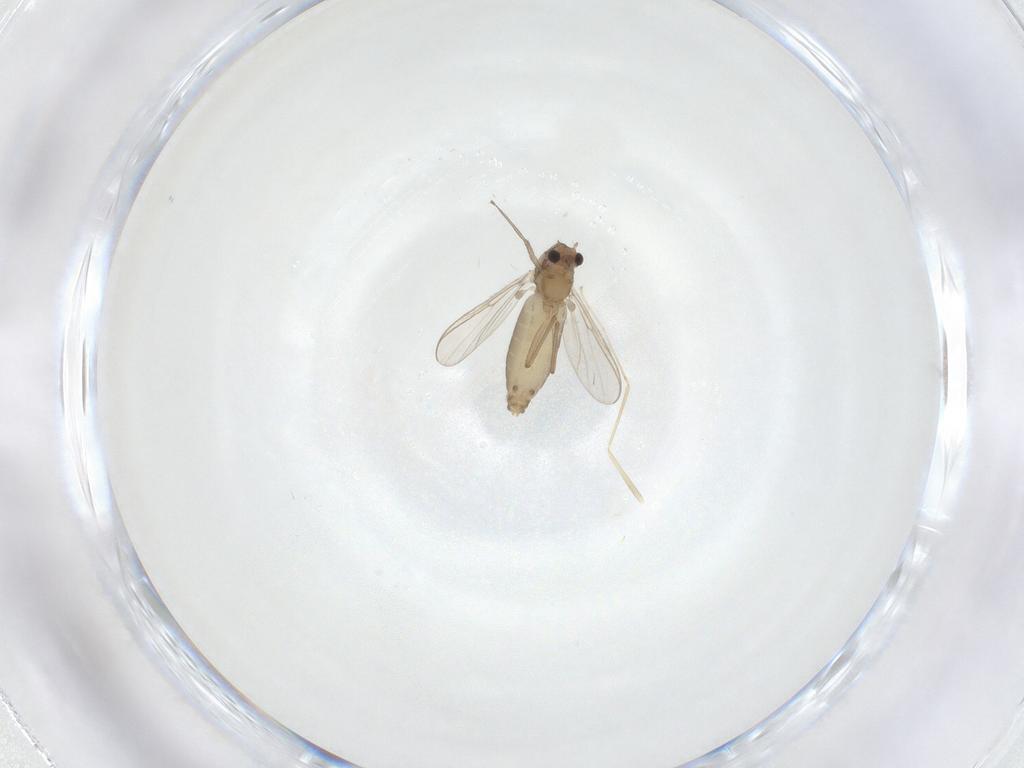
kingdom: Animalia
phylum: Arthropoda
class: Insecta
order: Diptera
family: Cecidomyiidae
